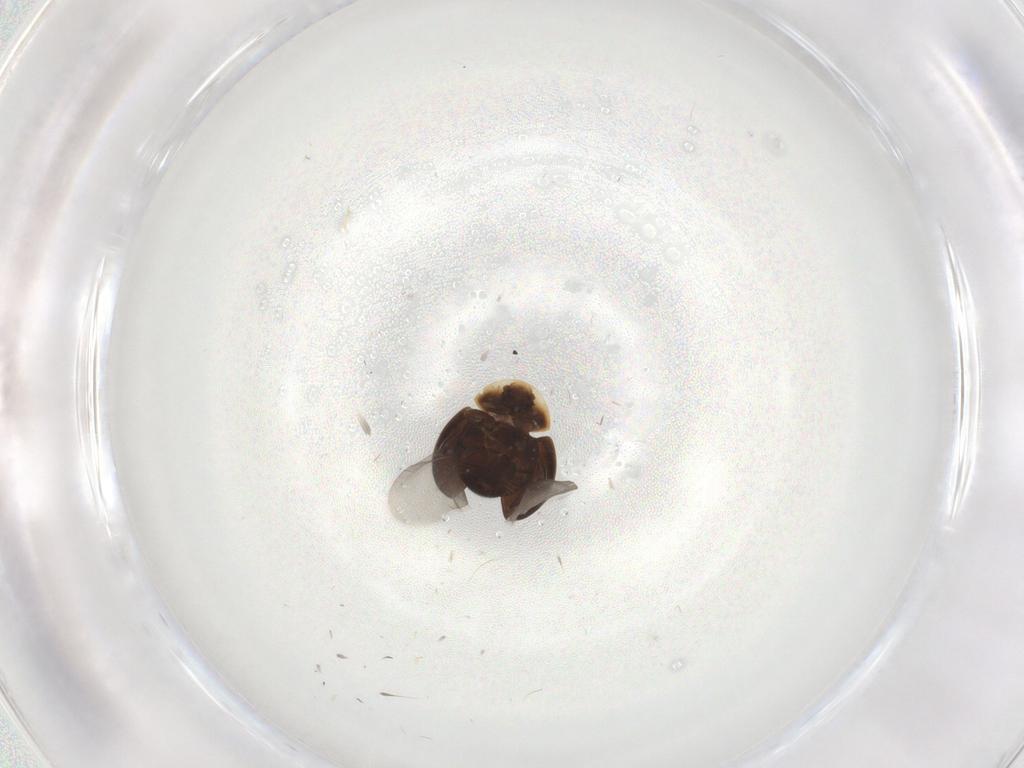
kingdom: Animalia
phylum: Arthropoda
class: Insecta
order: Coleoptera
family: Corylophidae
